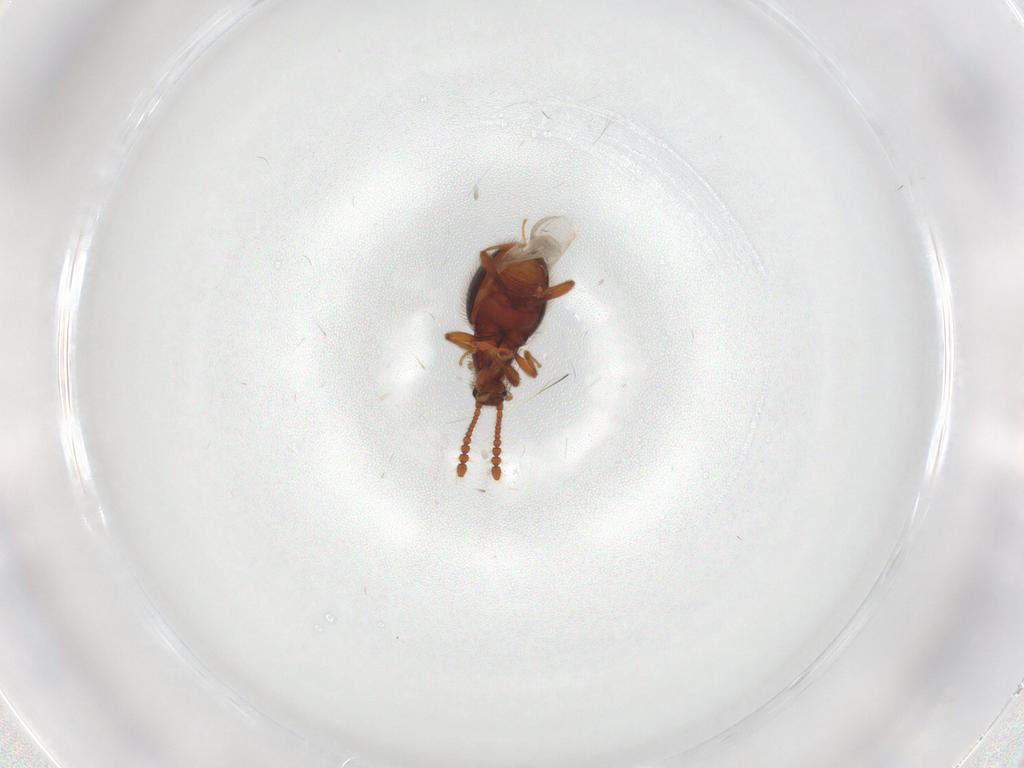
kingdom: Animalia
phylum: Arthropoda
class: Insecta
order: Coleoptera
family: Staphylinidae
